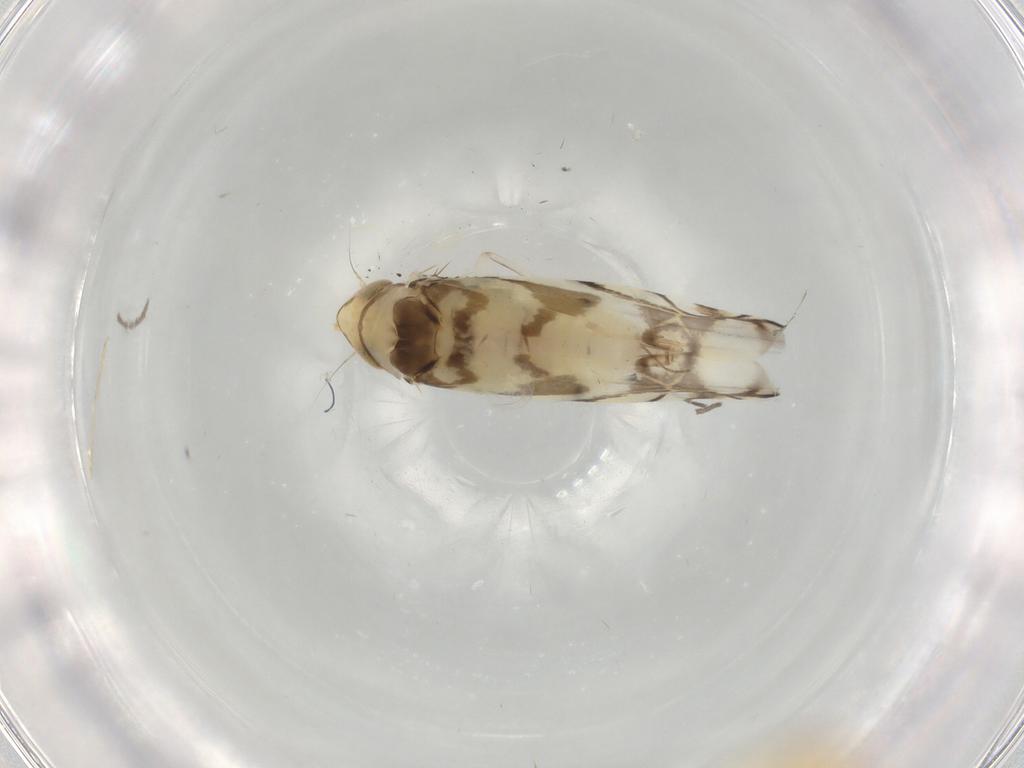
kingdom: Animalia
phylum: Arthropoda
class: Insecta
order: Hemiptera
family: Cicadellidae
